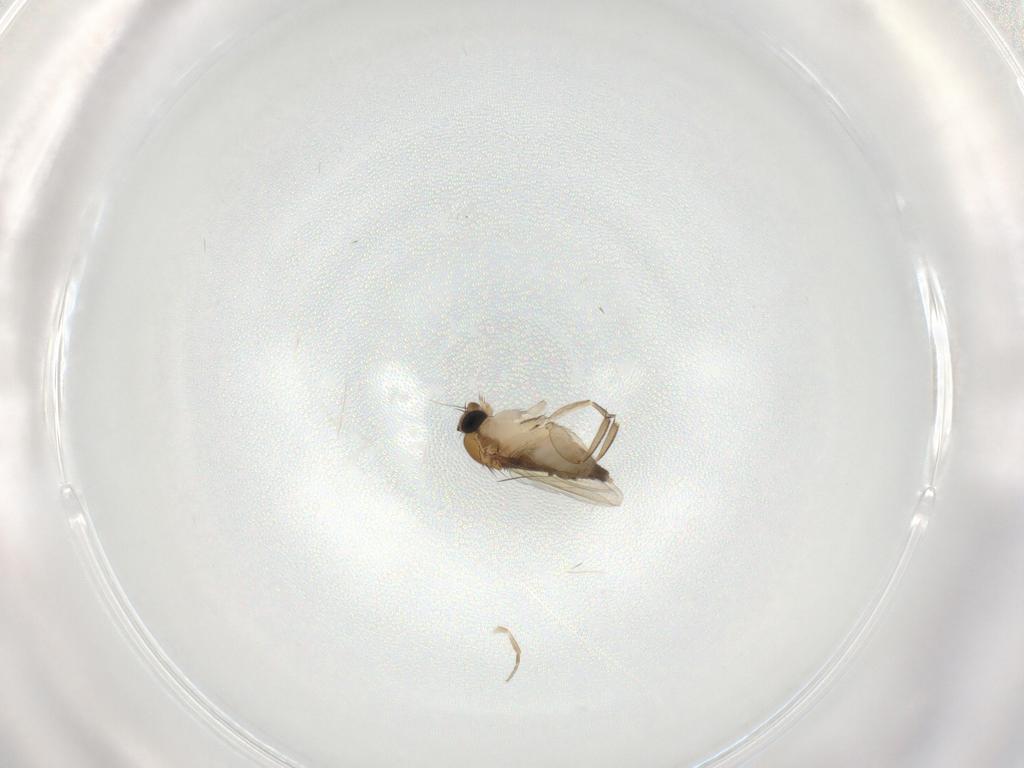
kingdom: Animalia
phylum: Arthropoda
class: Insecta
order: Diptera
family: Phoridae
